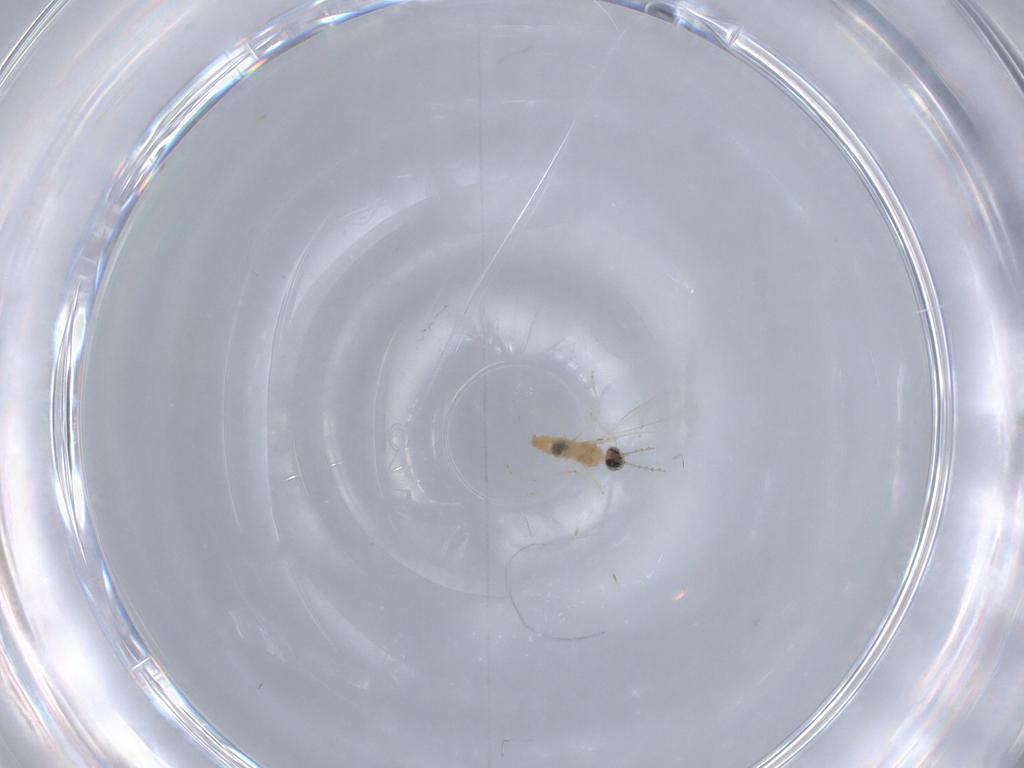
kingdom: Animalia
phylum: Arthropoda
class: Insecta
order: Diptera
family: Cecidomyiidae
